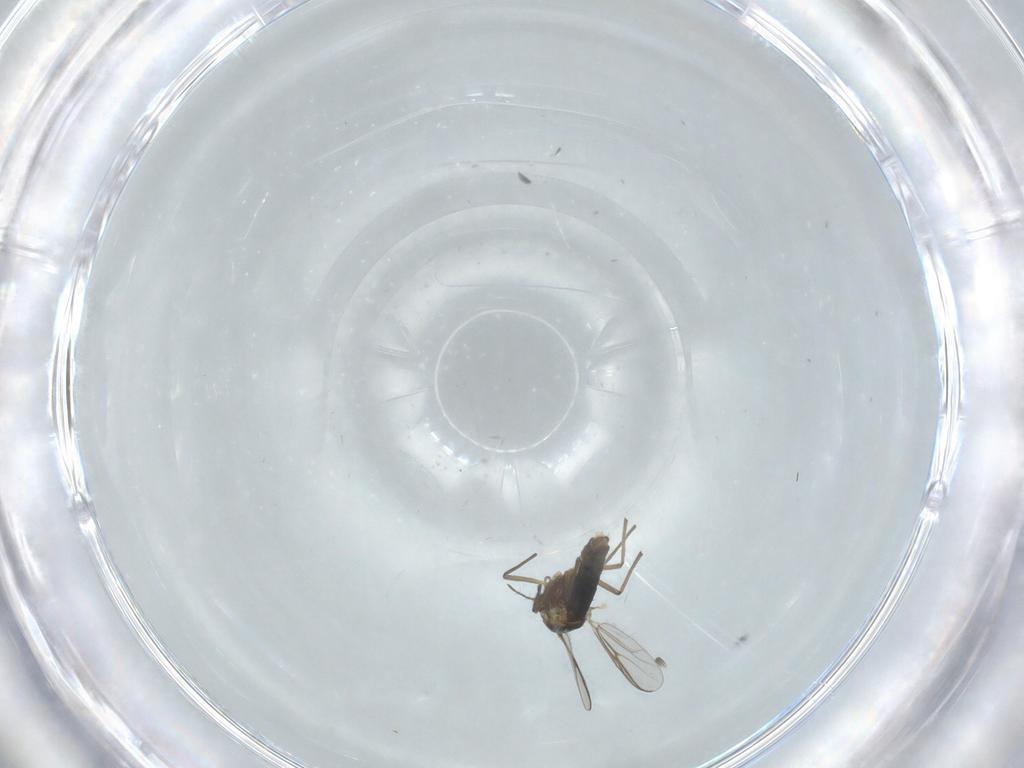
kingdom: Animalia
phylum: Arthropoda
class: Insecta
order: Diptera
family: Chironomidae
